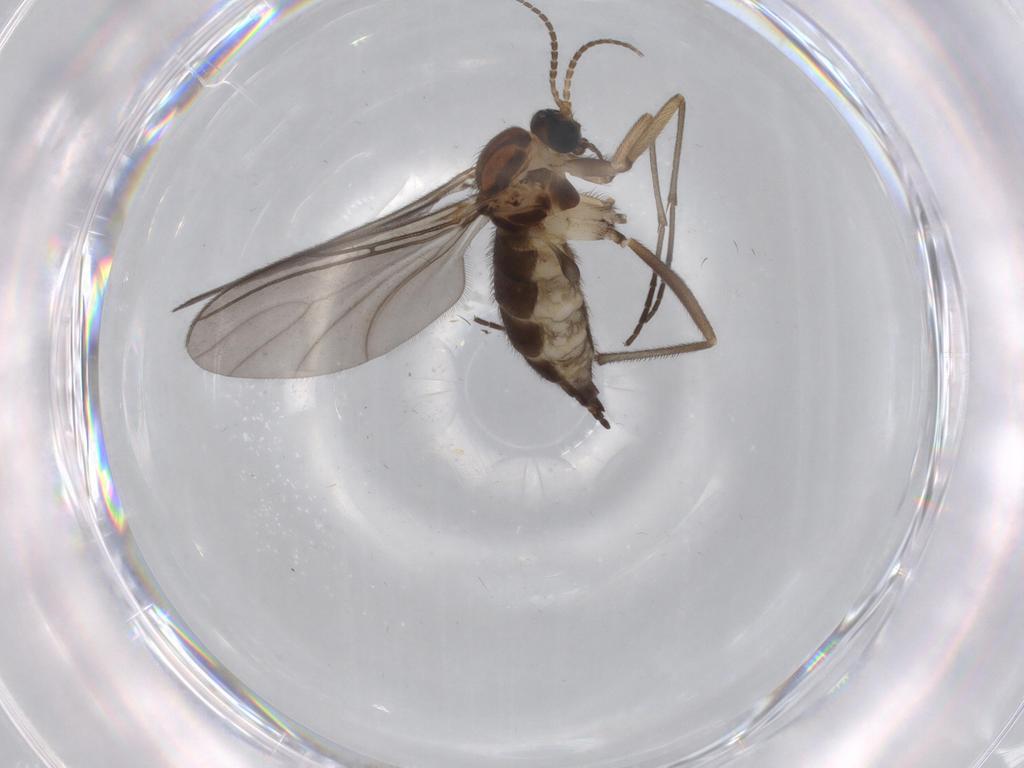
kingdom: Animalia
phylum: Arthropoda
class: Insecta
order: Diptera
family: Sciaridae
